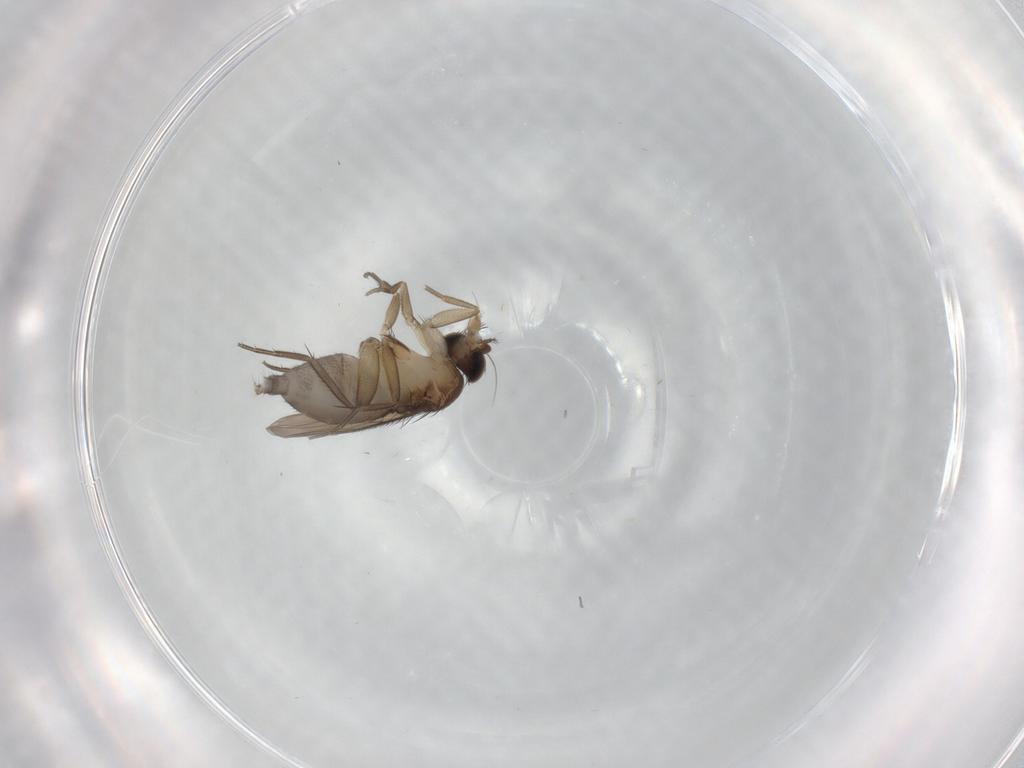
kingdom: Animalia
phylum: Arthropoda
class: Insecta
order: Diptera
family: Phoridae
